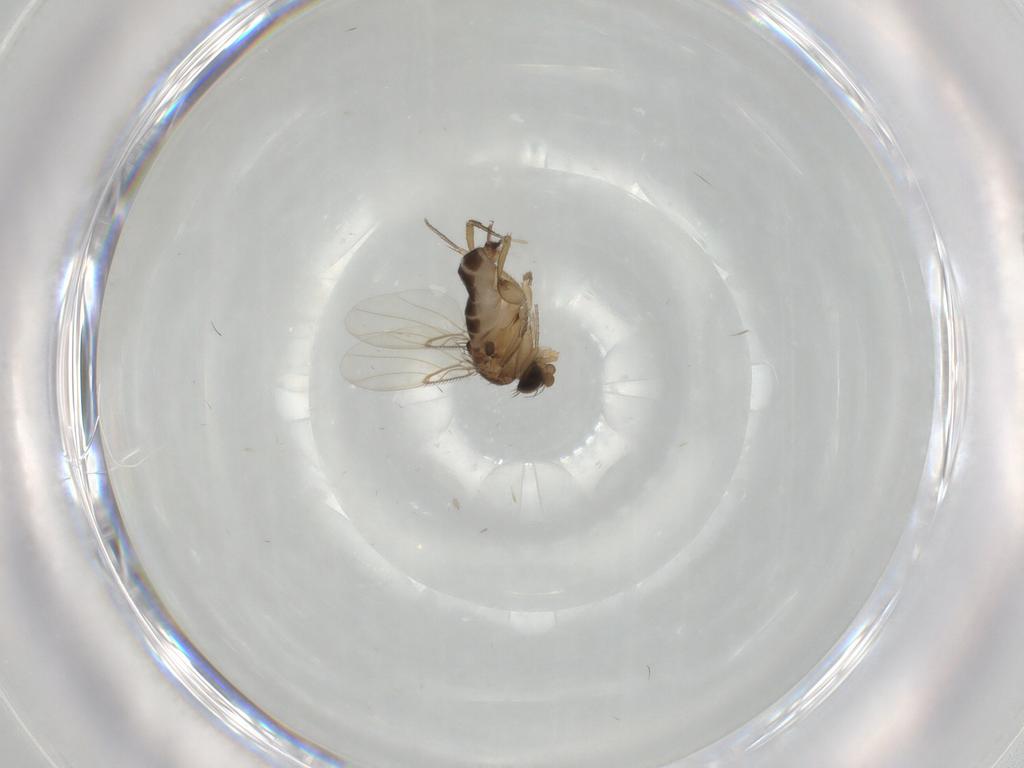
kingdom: Animalia
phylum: Arthropoda
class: Insecta
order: Diptera
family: Phoridae
